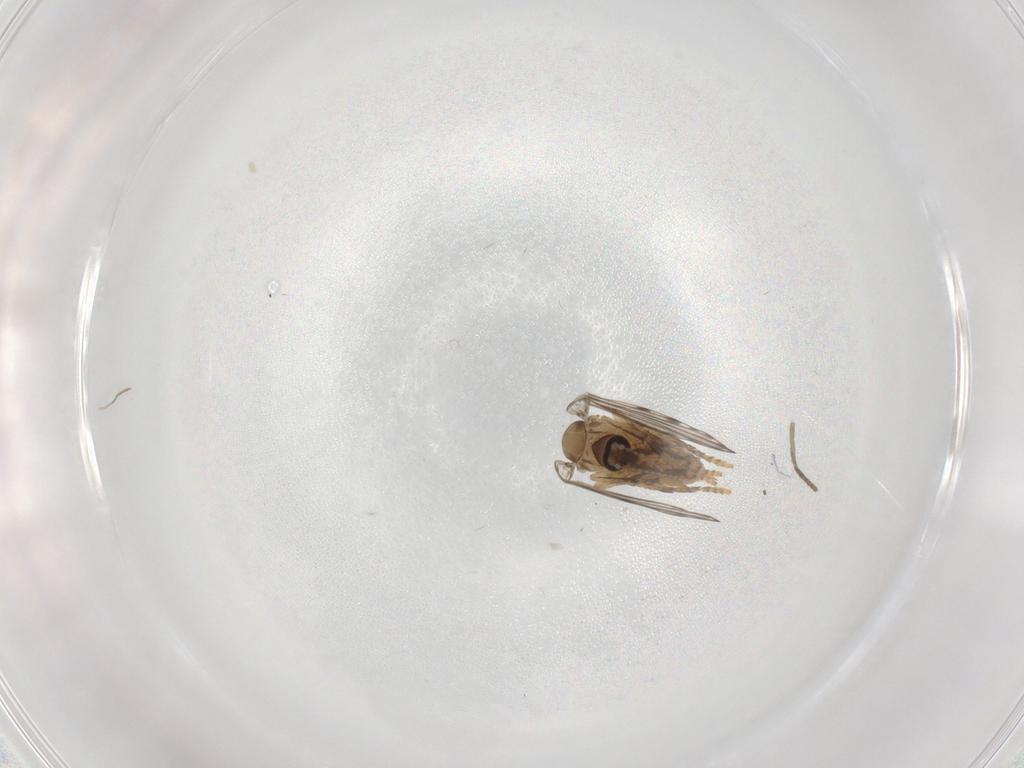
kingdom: Animalia
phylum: Arthropoda
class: Insecta
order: Diptera
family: Ceratopogonidae
